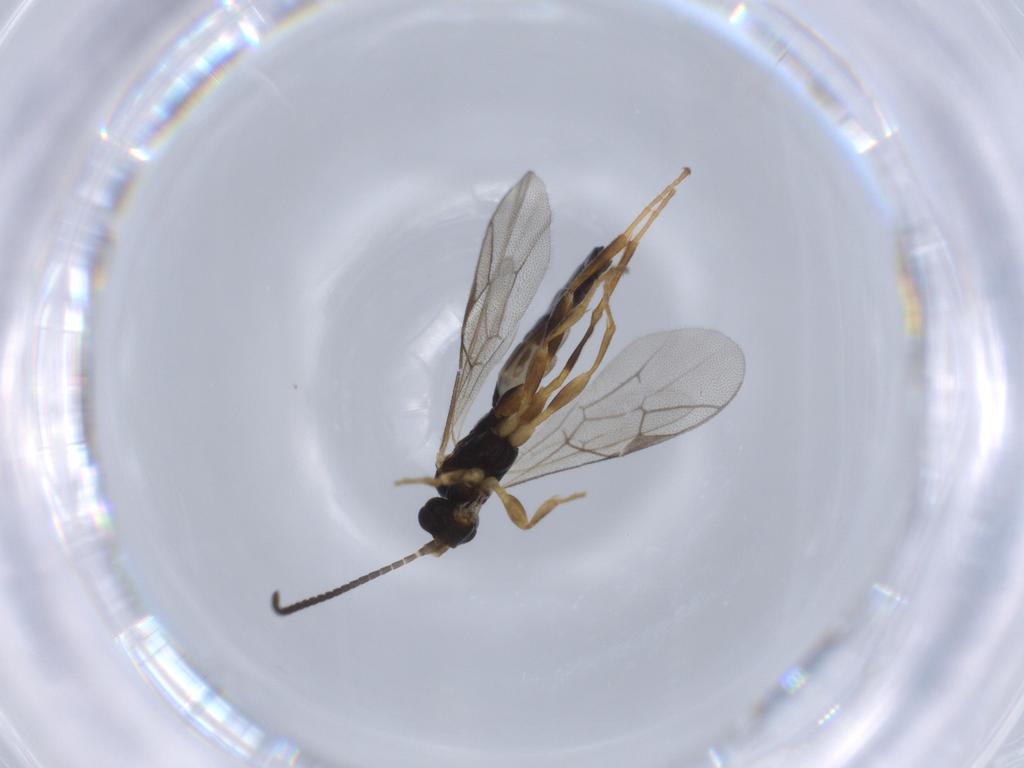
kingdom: Animalia
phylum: Arthropoda
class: Insecta
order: Hymenoptera
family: Ichneumonidae
